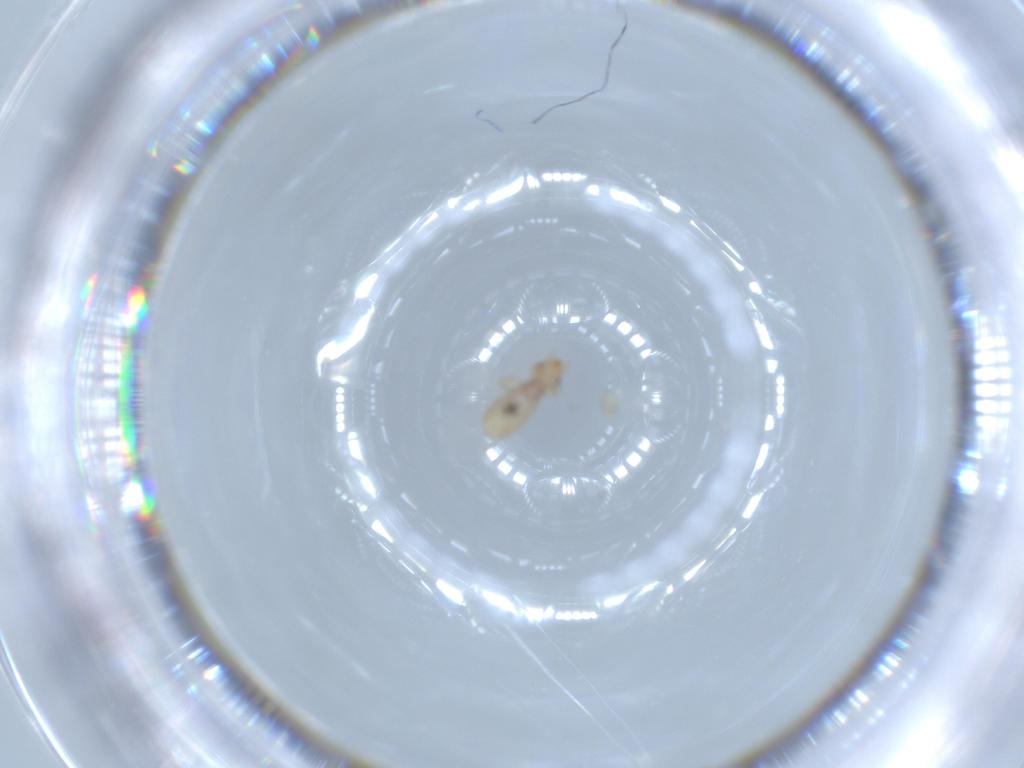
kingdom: Animalia
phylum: Arthropoda
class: Insecta
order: Psocodea
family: Liposcelididae
